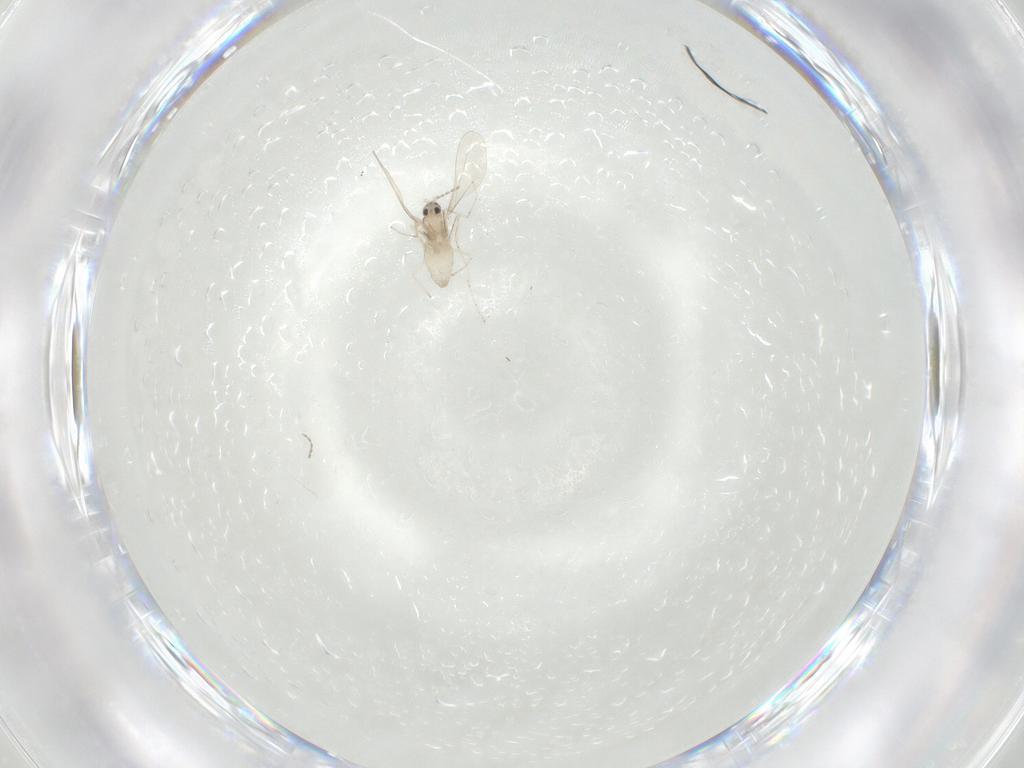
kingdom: Animalia
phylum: Arthropoda
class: Insecta
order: Diptera
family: Cecidomyiidae
